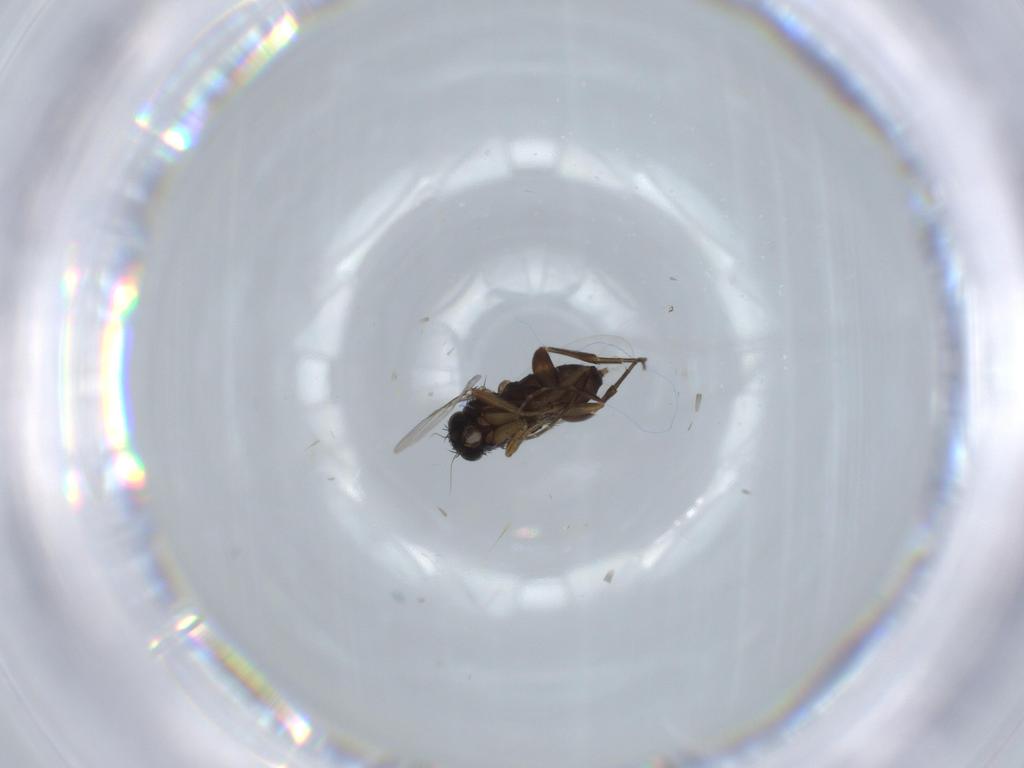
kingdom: Animalia
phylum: Arthropoda
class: Insecta
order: Diptera
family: Phoridae
